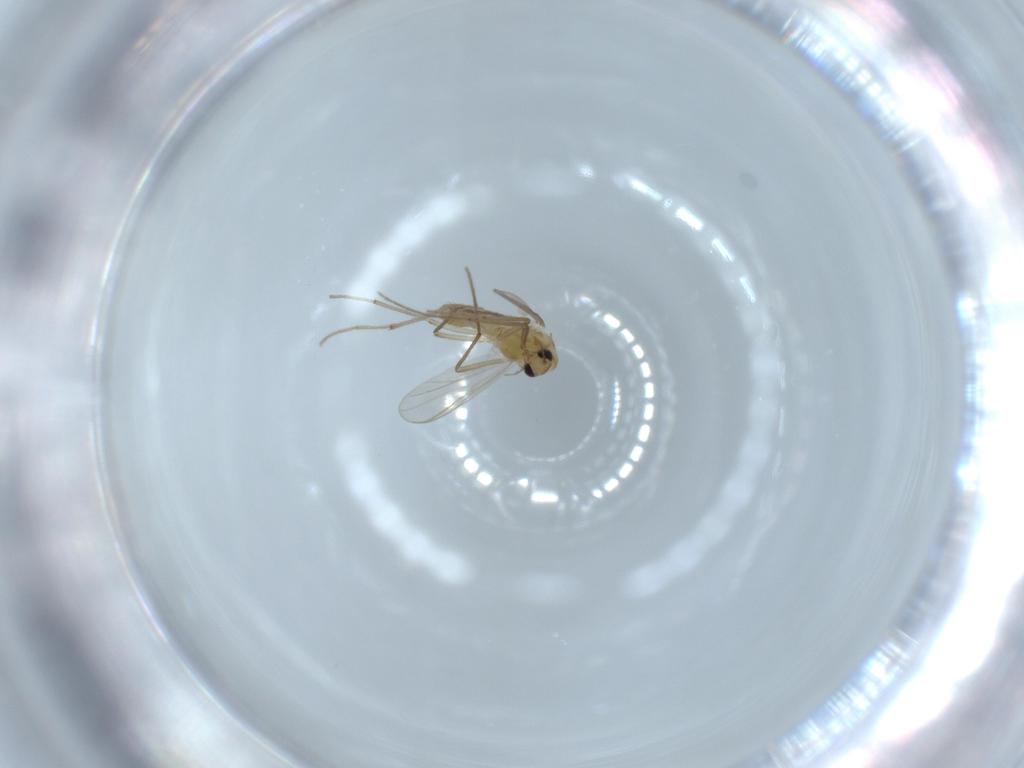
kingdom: Animalia
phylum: Arthropoda
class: Insecta
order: Diptera
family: Chironomidae
